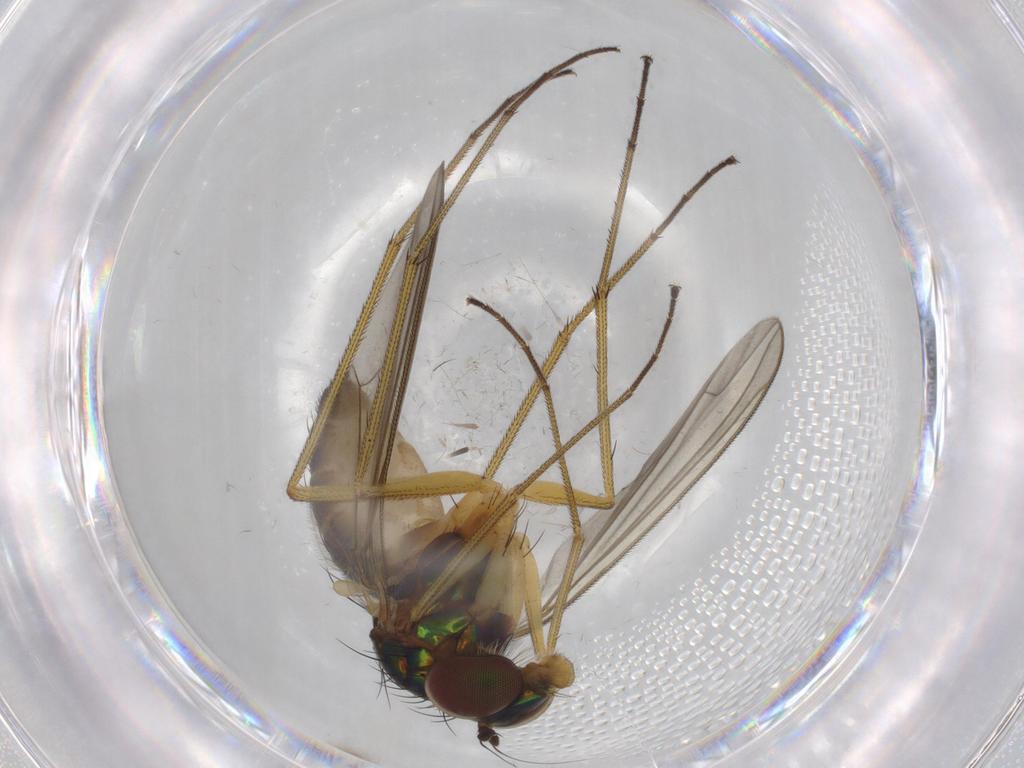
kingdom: Animalia
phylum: Arthropoda
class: Insecta
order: Diptera
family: Dolichopodidae
